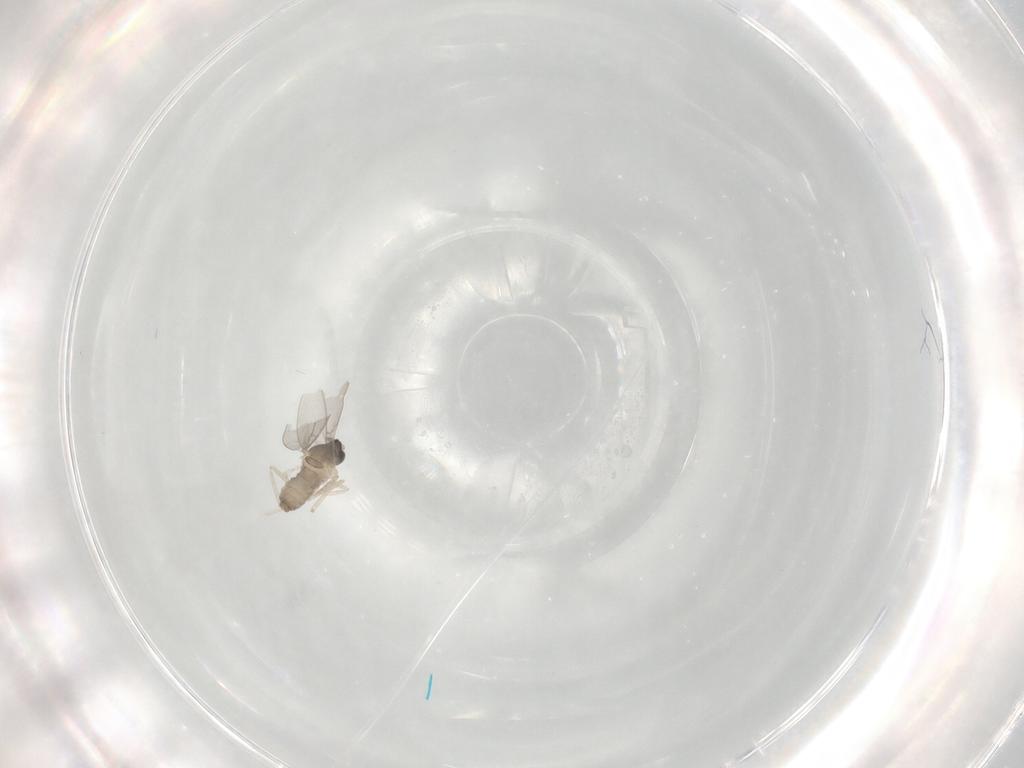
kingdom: Animalia
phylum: Arthropoda
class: Insecta
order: Diptera
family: Cecidomyiidae
